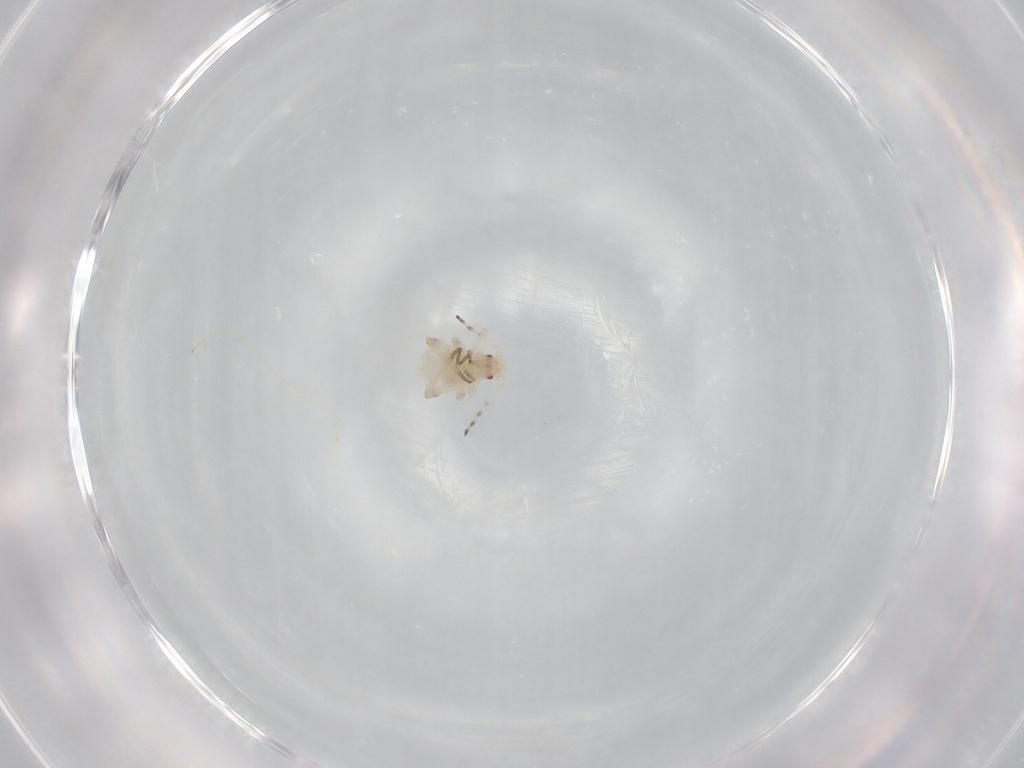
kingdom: Animalia
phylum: Arthropoda
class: Insecta
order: Hemiptera
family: Aphididae
